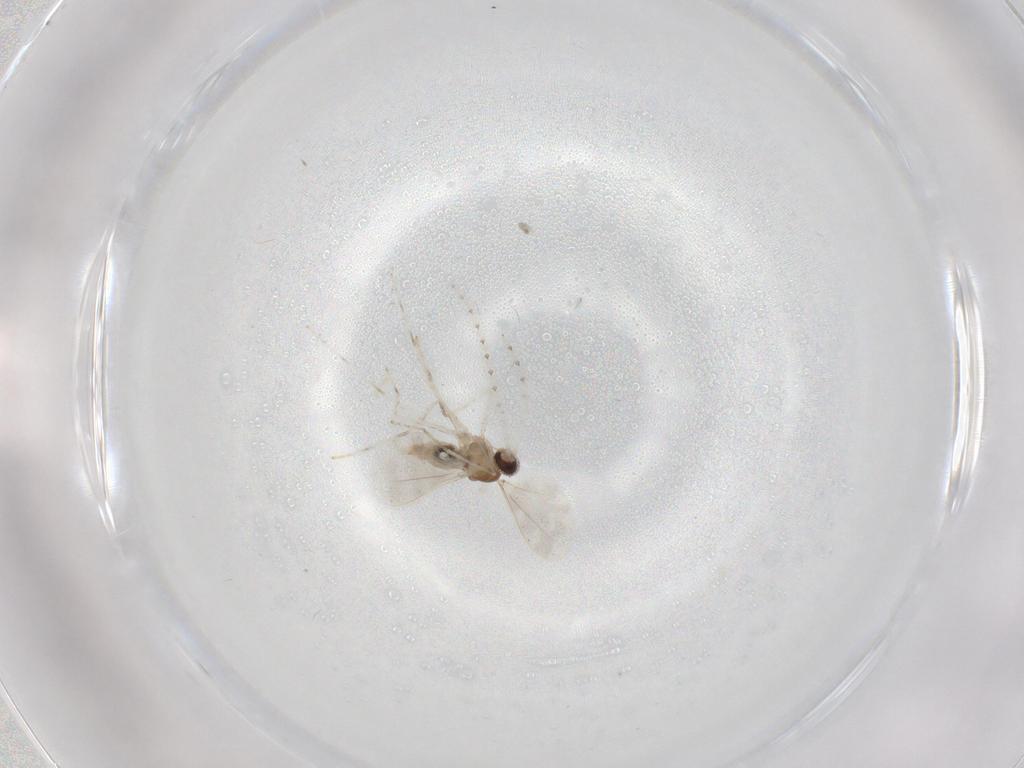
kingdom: Animalia
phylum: Arthropoda
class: Insecta
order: Diptera
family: Cecidomyiidae
